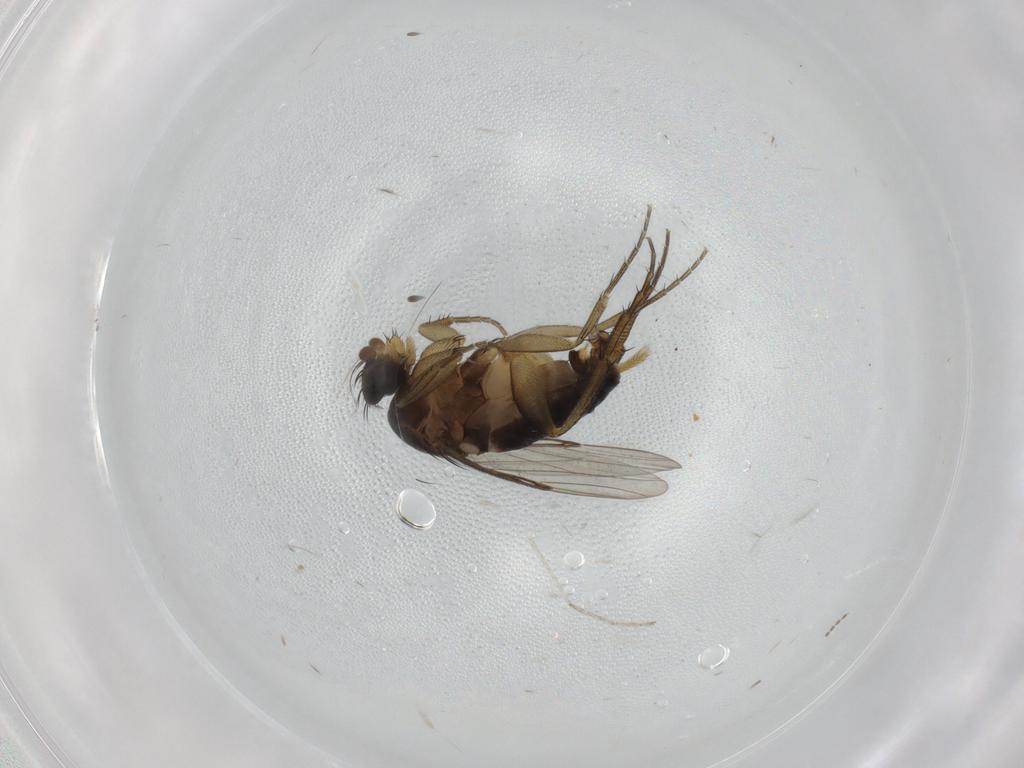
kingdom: Animalia
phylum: Arthropoda
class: Insecta
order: Diptera
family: Phoridae
